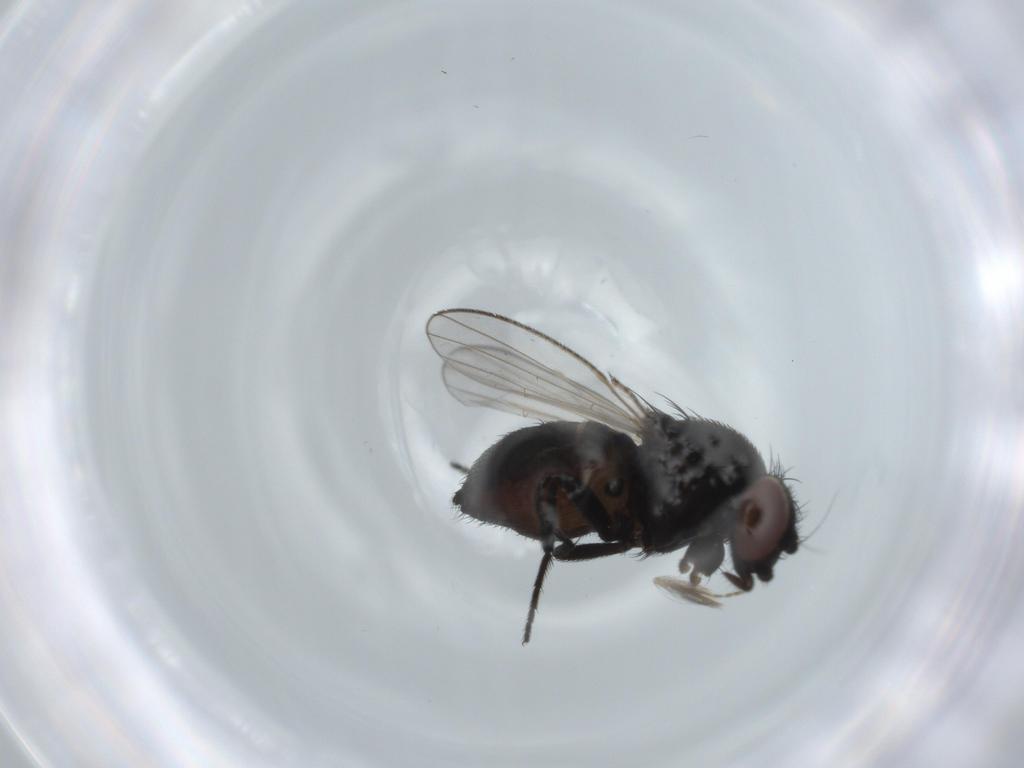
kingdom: Animalia
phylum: Arthropoda
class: Insecta
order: Diptera
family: Milichiidae
